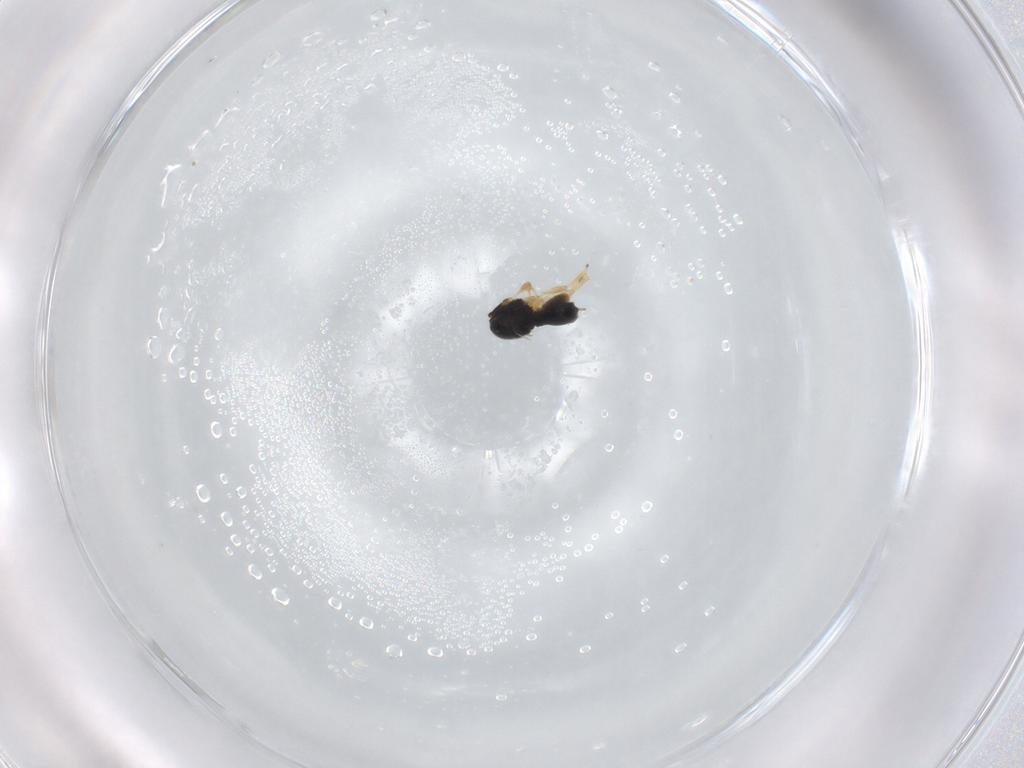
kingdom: Animalia
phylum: Arthropoda
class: Insecta
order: Hymenoptera
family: Scelionidae
